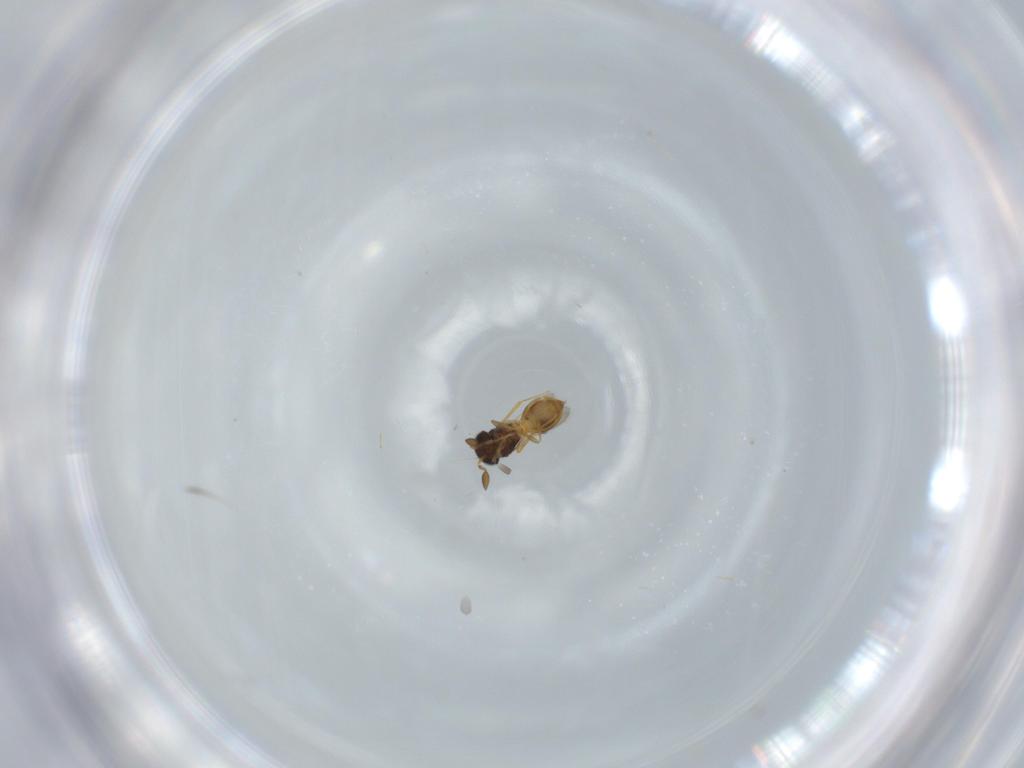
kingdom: Animalia
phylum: Arthropoda
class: Insecta
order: Hymenoptera
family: Scelionidae
